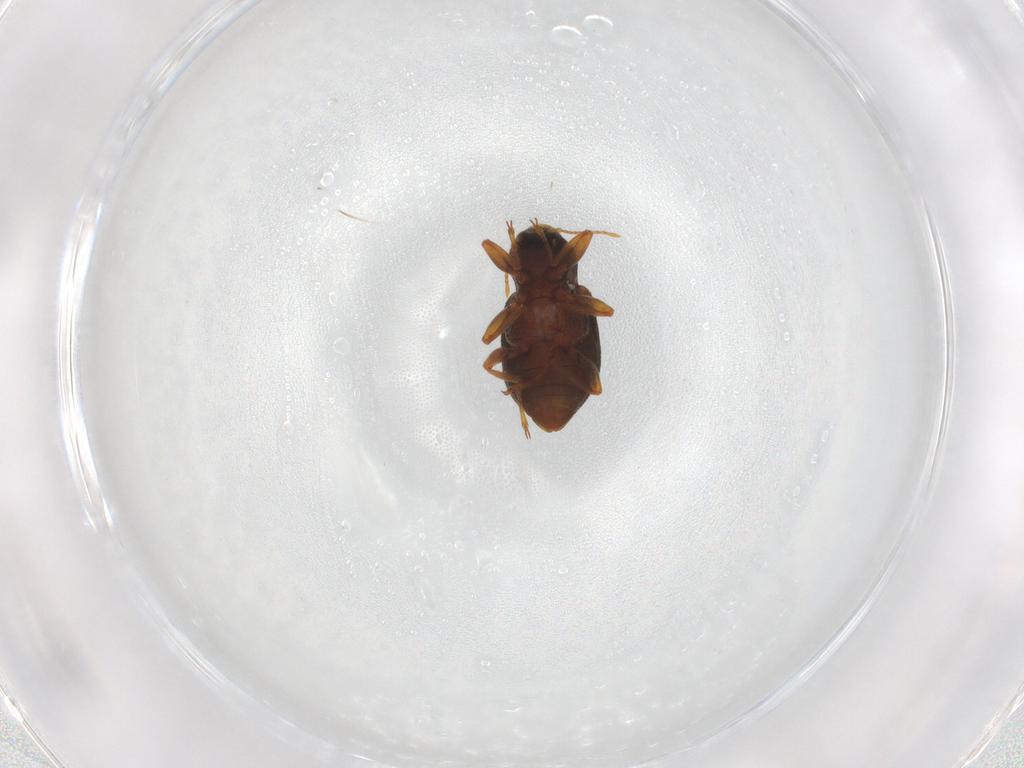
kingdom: Animalia
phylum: Arthropoda
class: Insecta
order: Coleoptera
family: Elmidae
